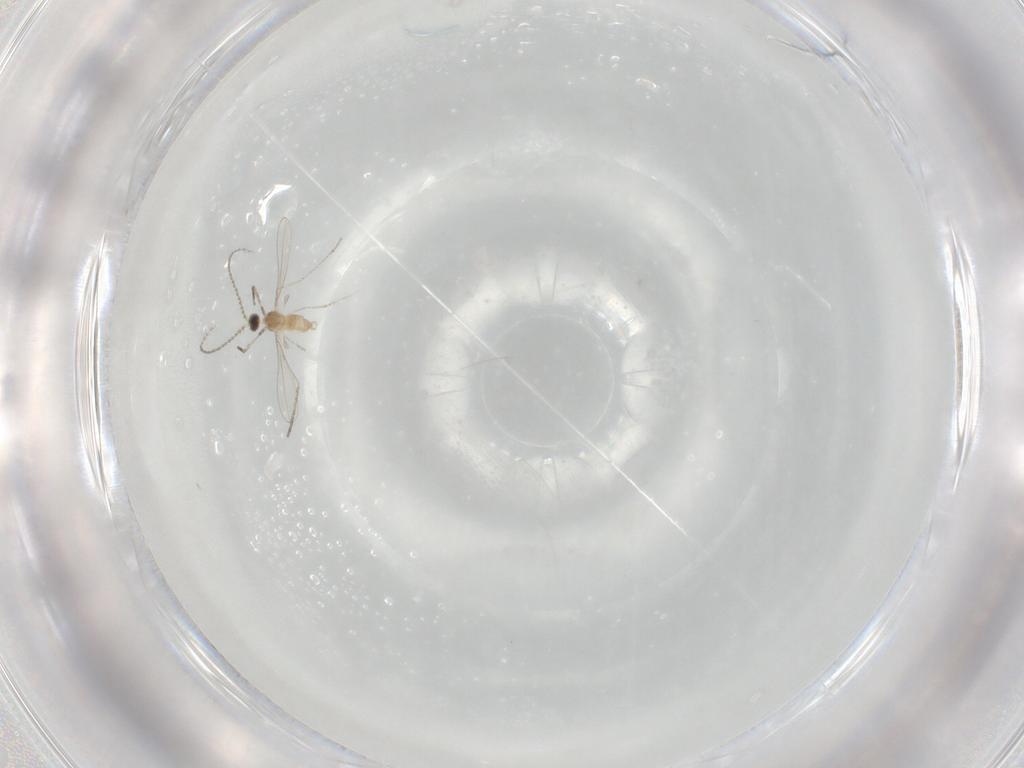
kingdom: Animalia
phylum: Arthropoda
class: Insecta
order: Diptera
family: Cecidomyiidae
